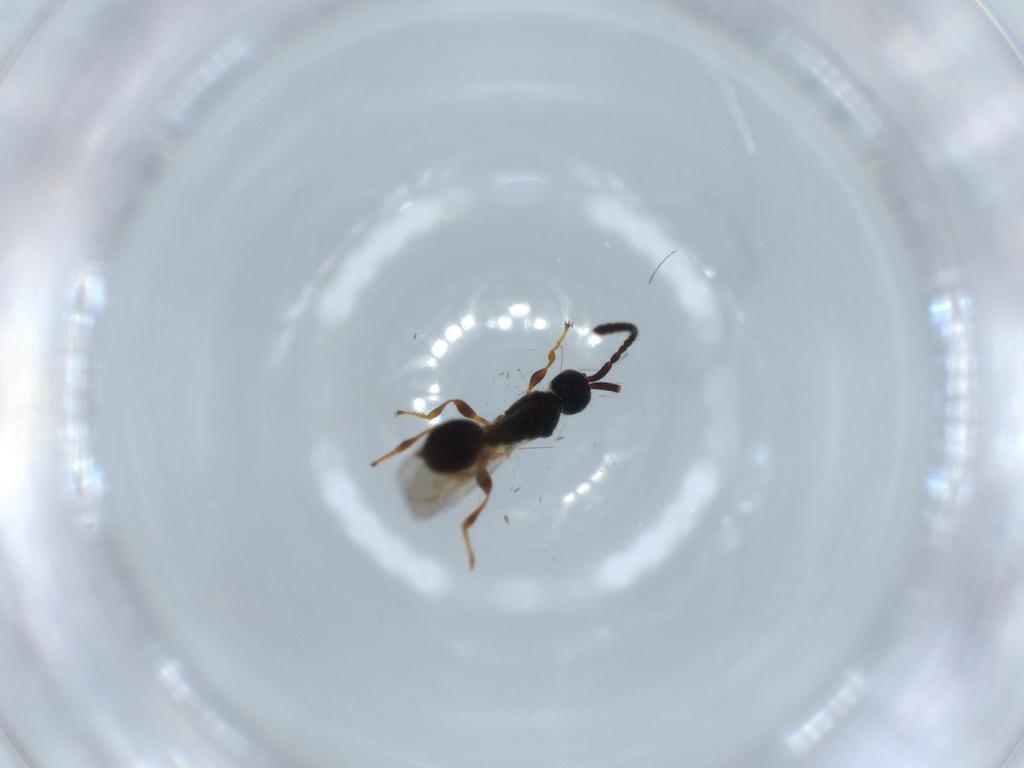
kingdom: Animalia
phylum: Arthropoda
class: Insecta
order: Hymenoptera
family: Diapriidae
